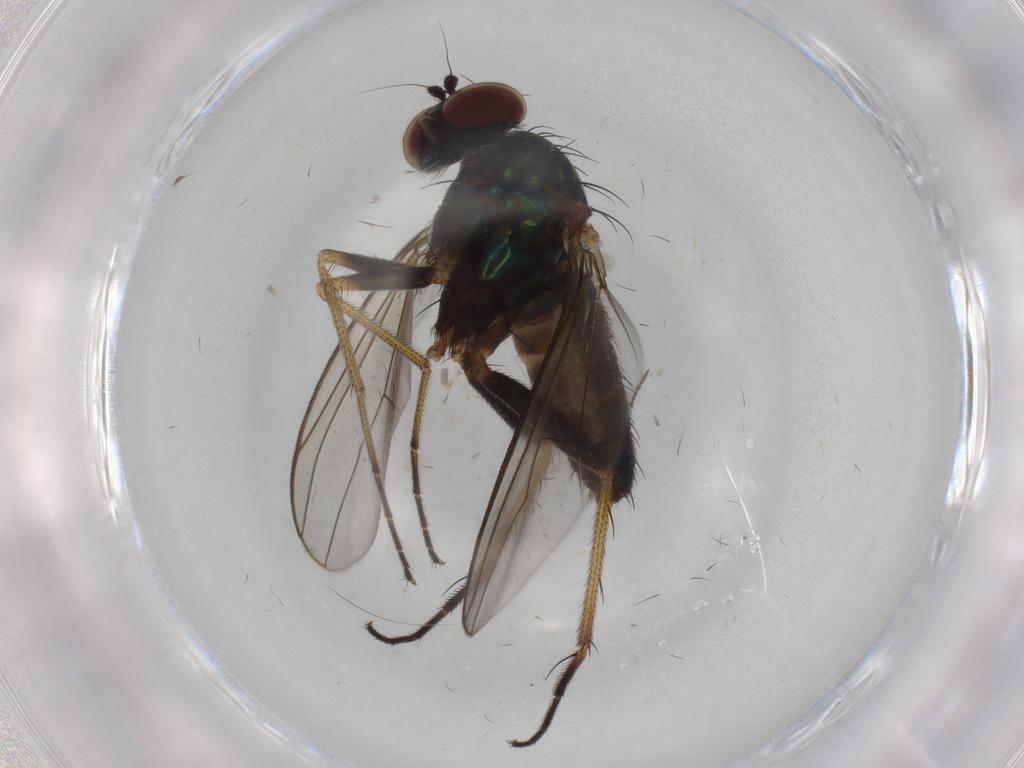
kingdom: Animalia
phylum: Arthropoda
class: Insecta
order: Diptera
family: Dolichopodidae
